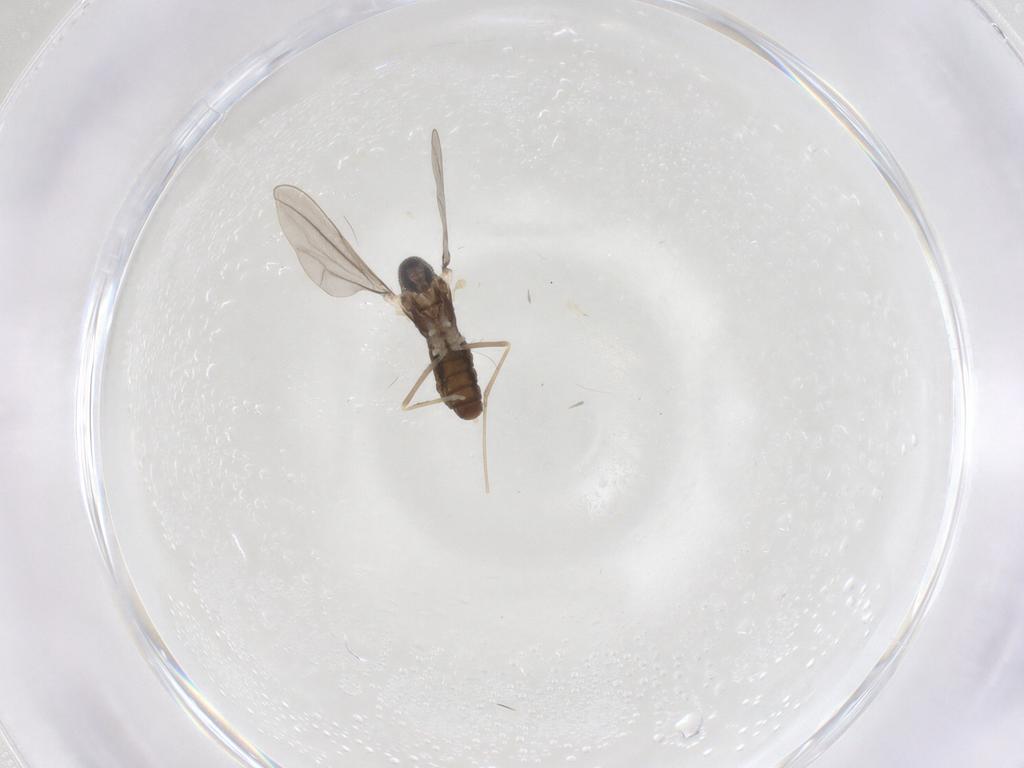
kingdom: Animalia
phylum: Arthropoda
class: Insecta
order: Diptera
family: Cecidomyiidae
